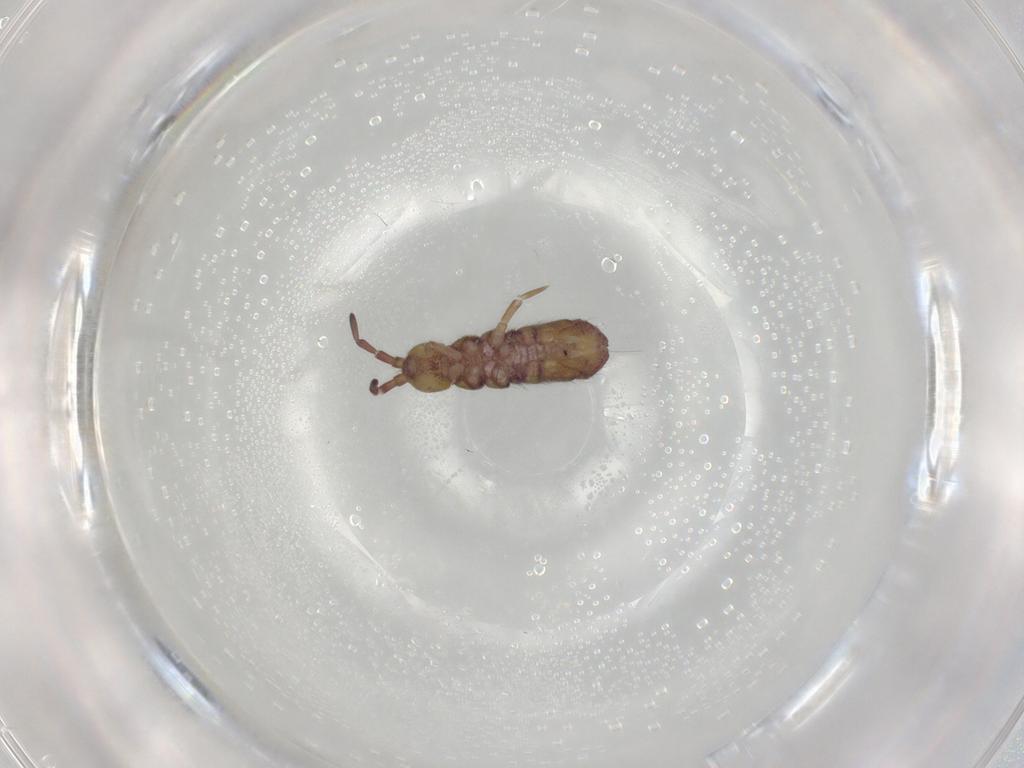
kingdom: Animalia
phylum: Arthropoda
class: Collembola
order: Entomobryomorpha
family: Isotomidae
